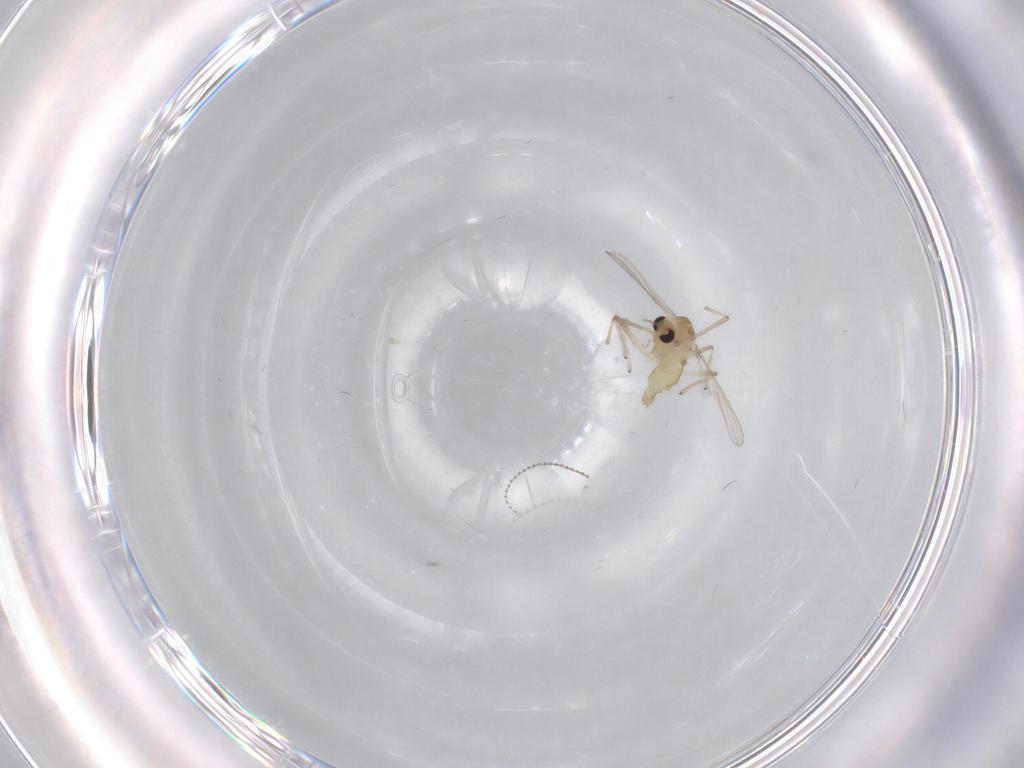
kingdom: Animalia
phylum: Arthropoda
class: Insecta
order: Diptera
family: Chironomidae
